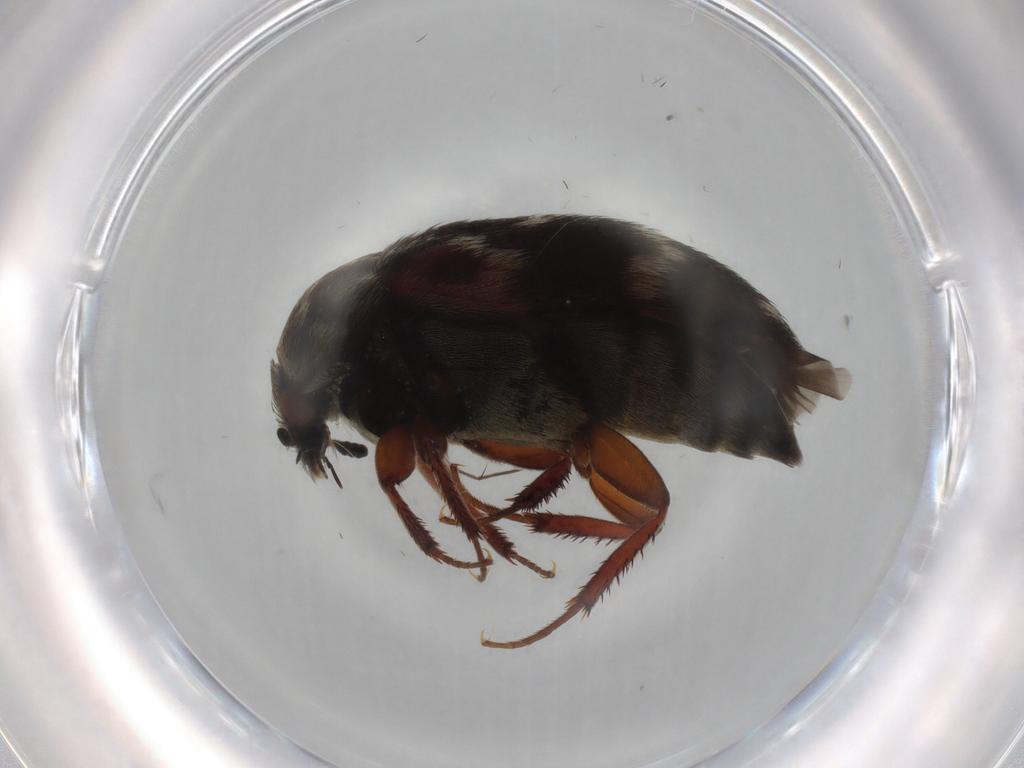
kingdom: Animalia
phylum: Arthropoda
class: Insecta
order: Coleoptera
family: Dermestidae
